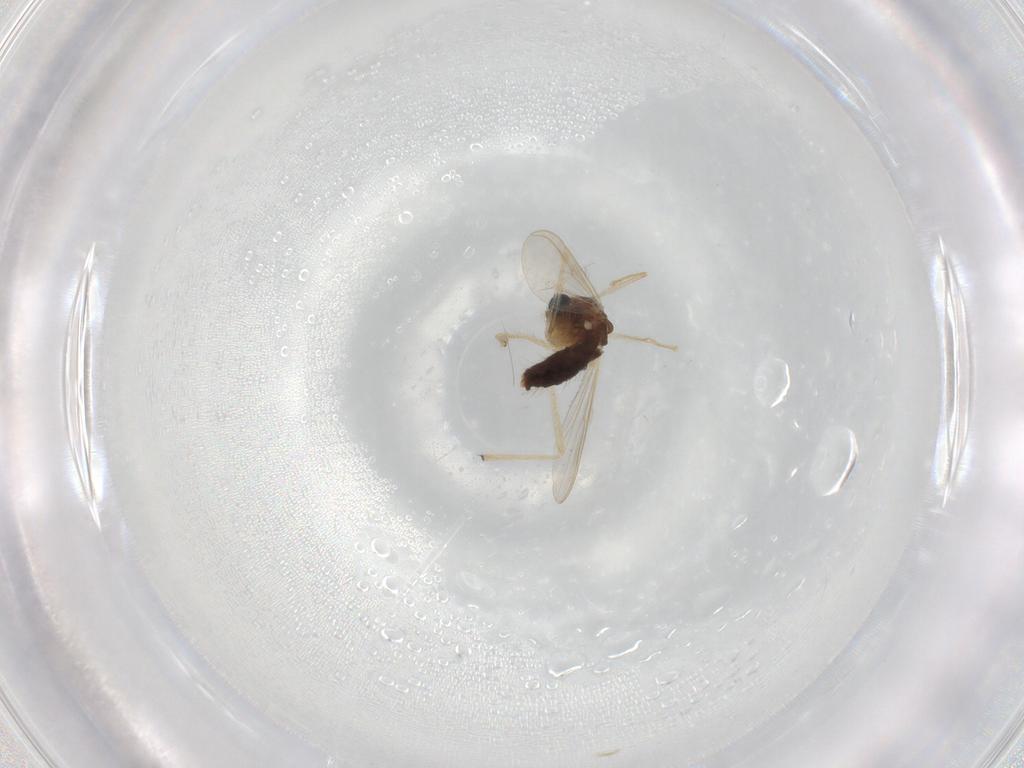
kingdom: Animalia
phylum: Arthropoda
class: Insecta
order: Diptera
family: Chironomidae
